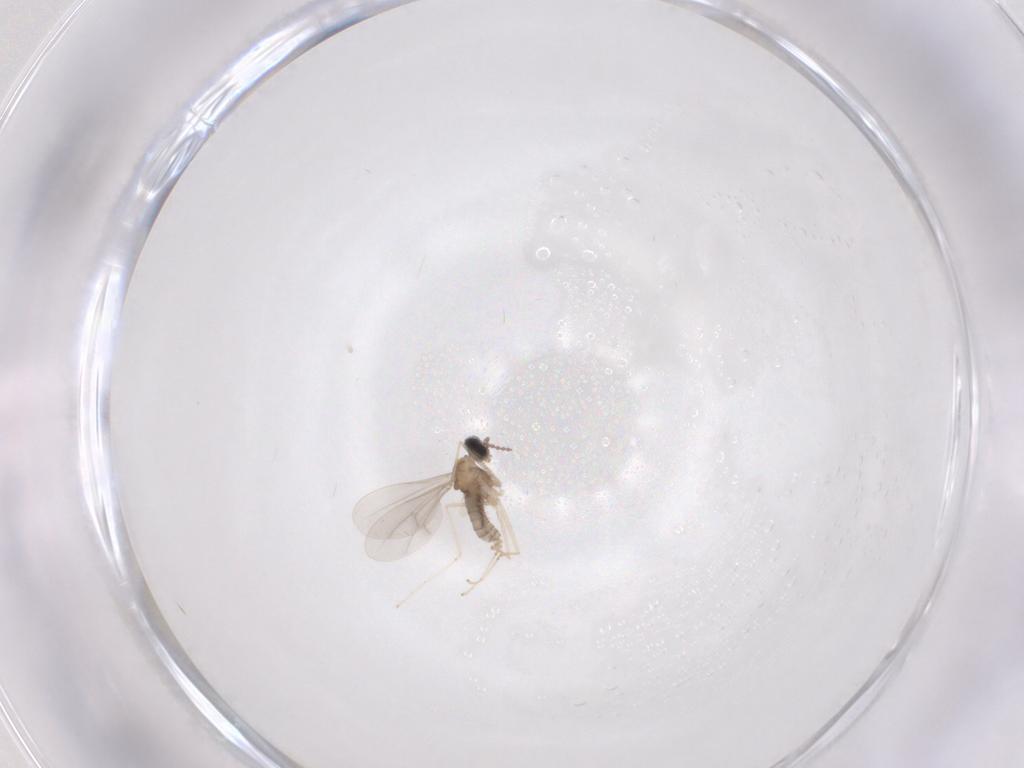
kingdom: Animalia
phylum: Arthropoda
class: Insecta
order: Diptera
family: Cecidomyiidae
